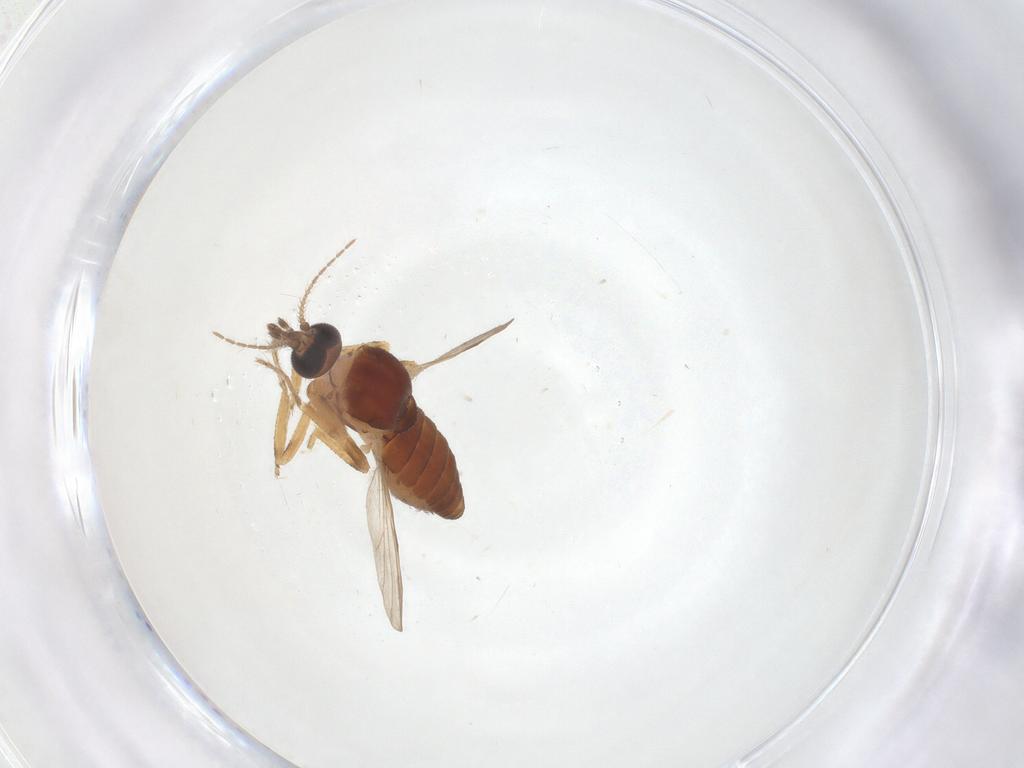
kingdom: Animalia
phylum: Arthropoda
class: Insecta
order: Diptera
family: Ceratopogonidae
